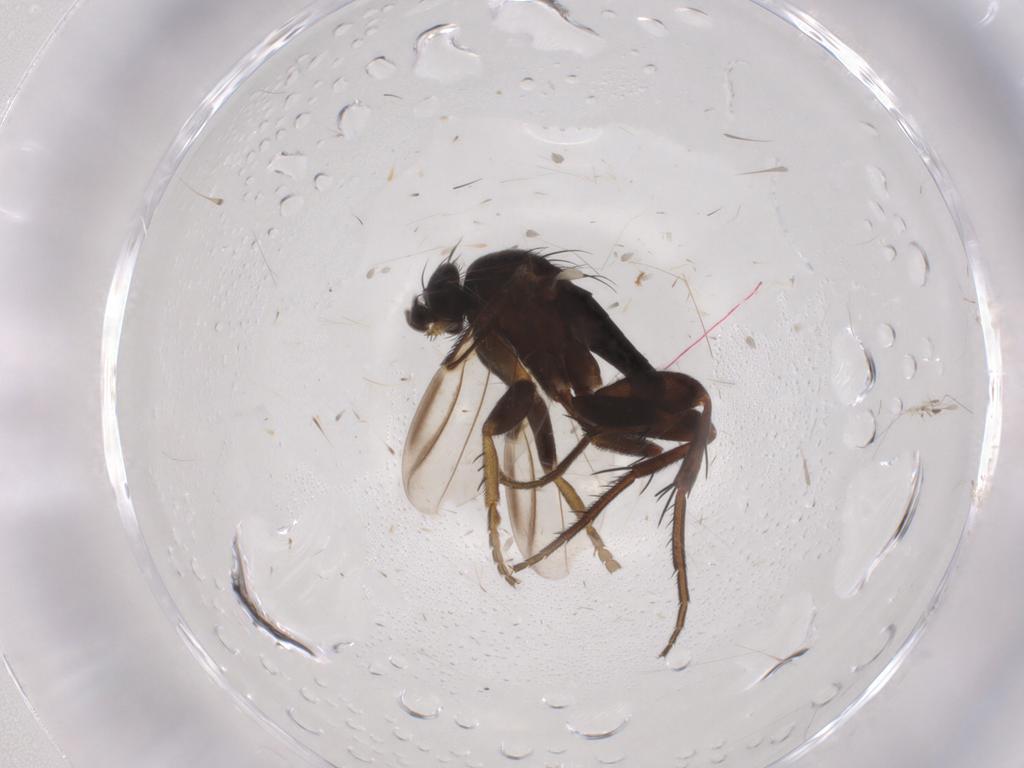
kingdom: Animalia
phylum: Arthropoda
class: Insecta
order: Diptera
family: Phoridae
